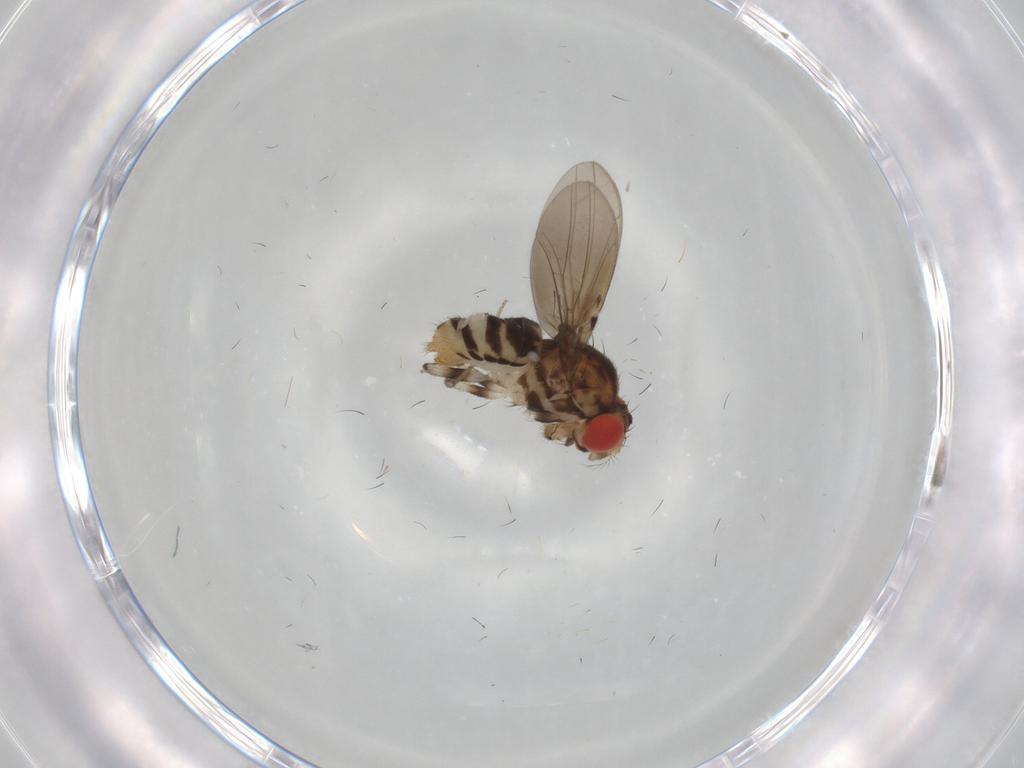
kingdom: Animalia
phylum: Arthropoda
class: Insecta
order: Diptera
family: Drosophilidae
